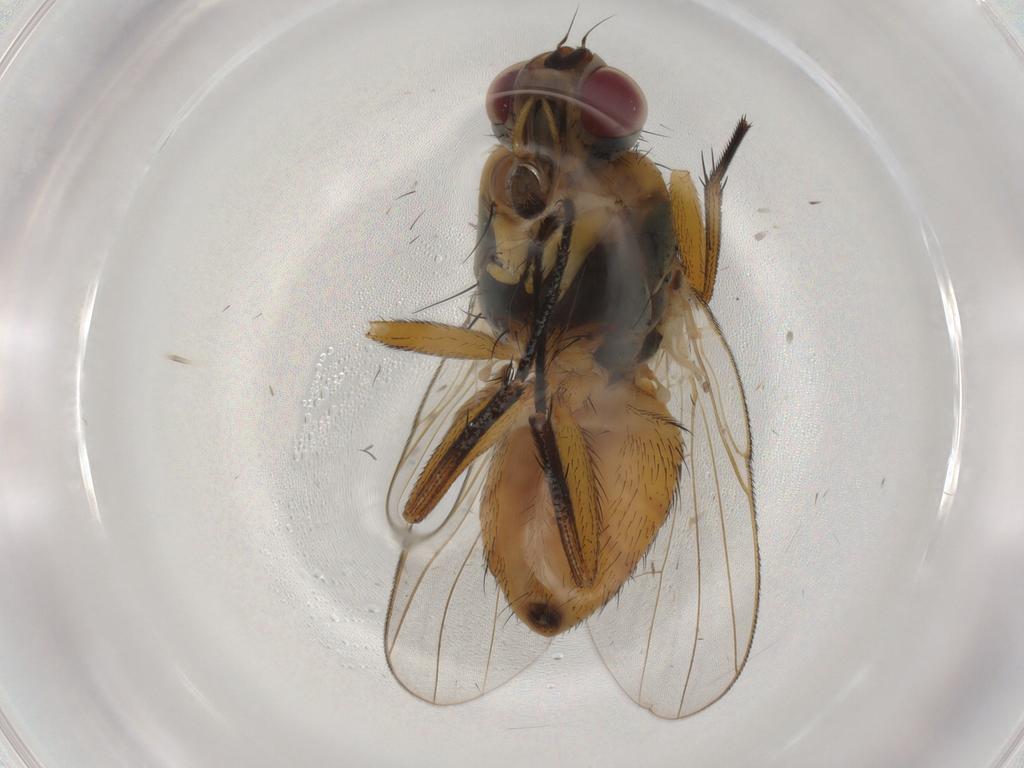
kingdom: Animalia
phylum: Arthropoda
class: Insecta
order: Diptera
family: Muscidae
